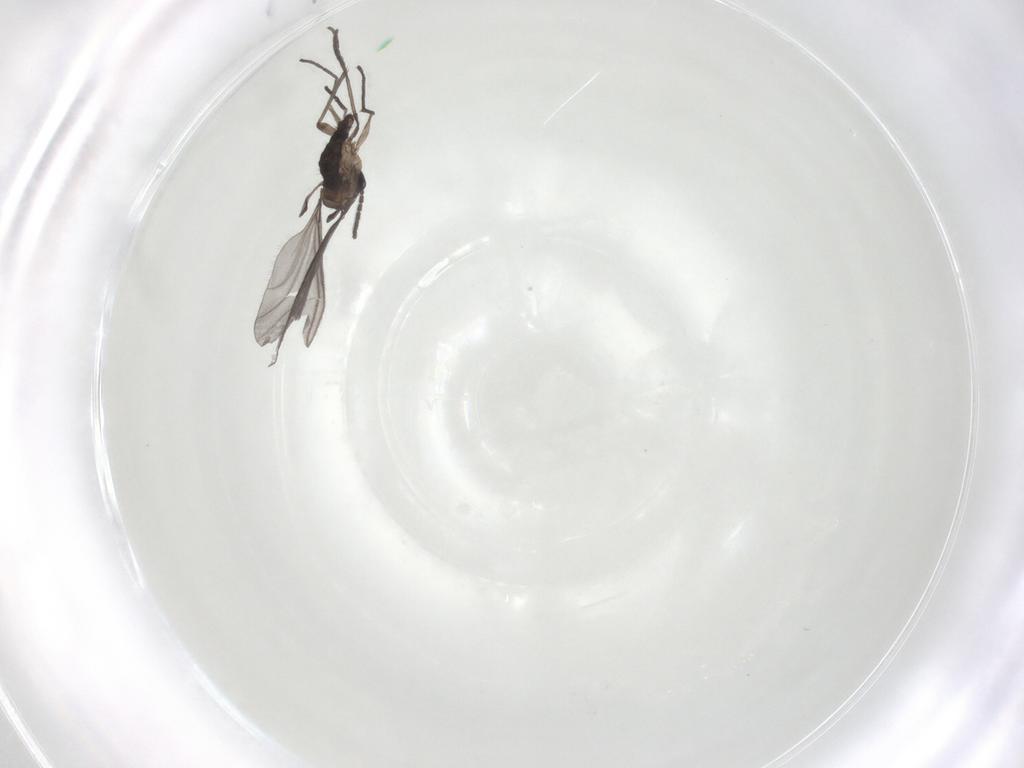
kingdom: Animalia
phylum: Arthropoda
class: Insecta
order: Diptera
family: Sciaridae
